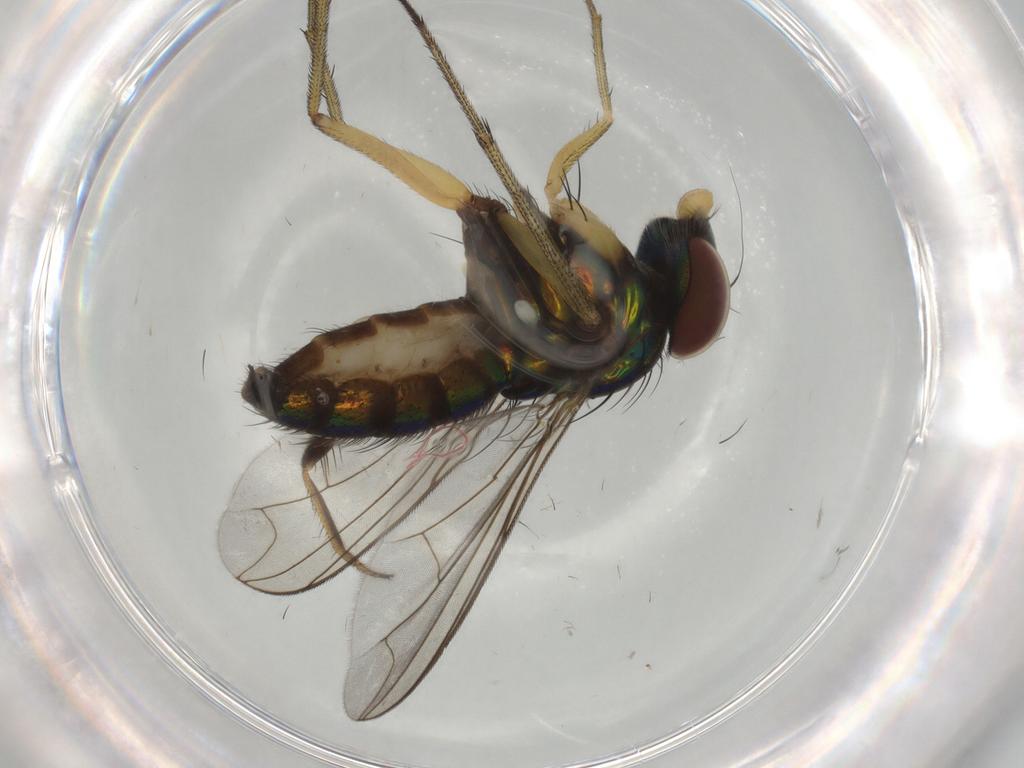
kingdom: Animalia
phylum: Arthropoda
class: Insecta
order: Diptera
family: Dolichopodidae
